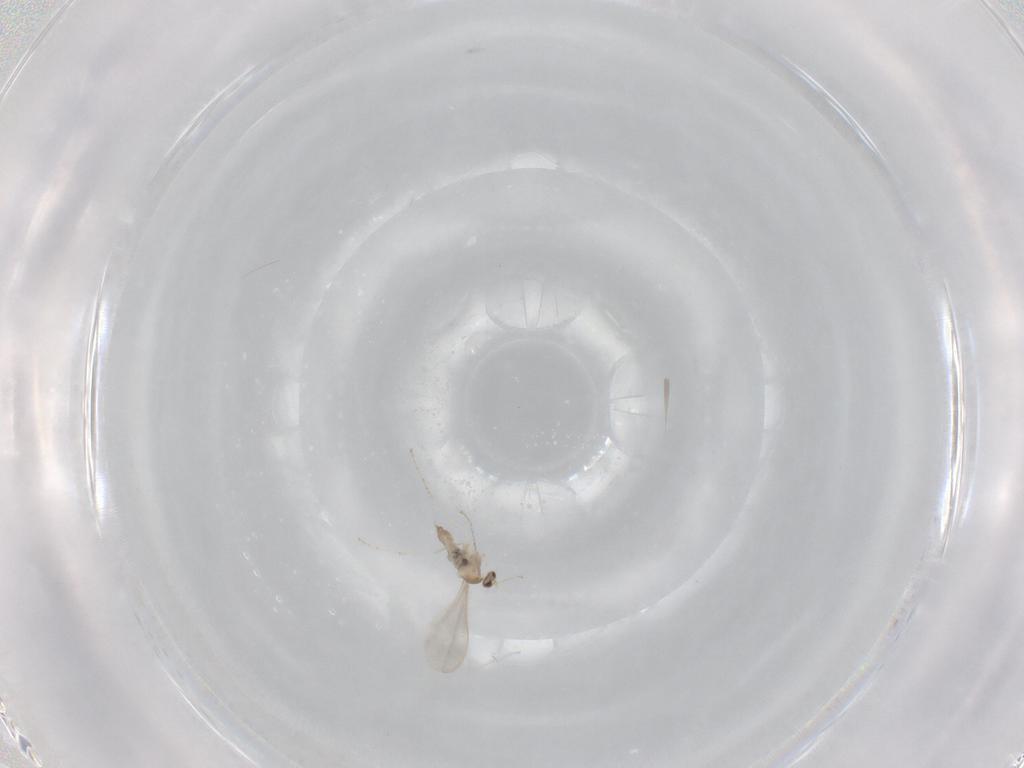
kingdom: Animalia
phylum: Arthropoda
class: Insecta
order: Diptera
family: Cecidomyiidae
